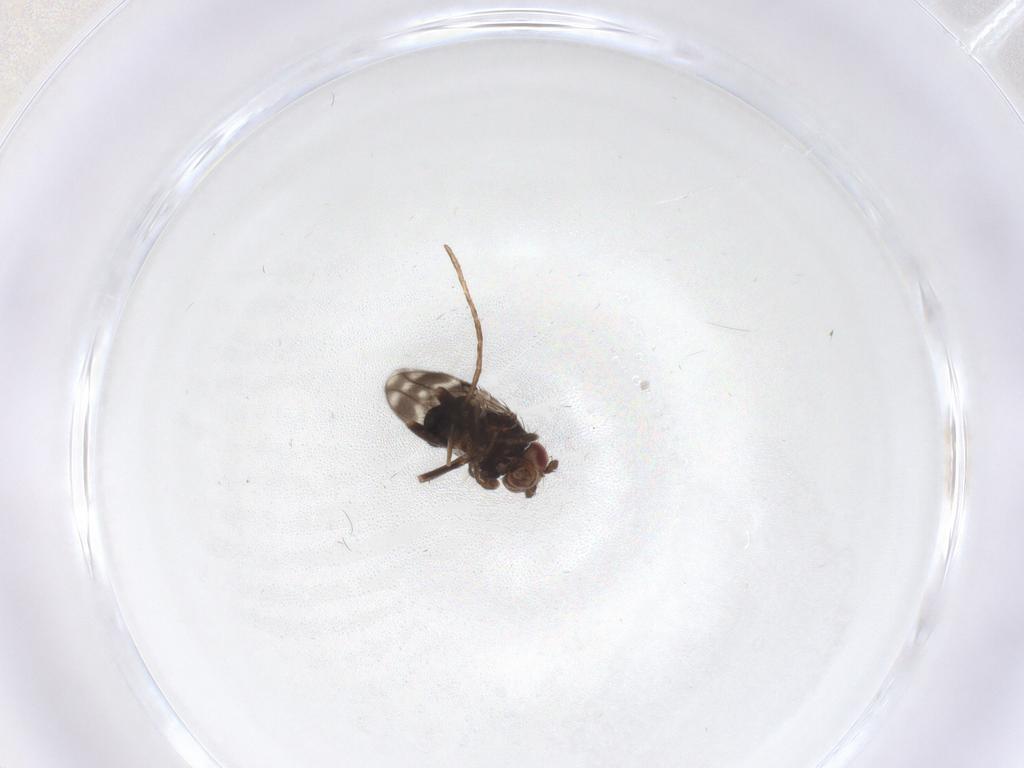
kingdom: Animalia
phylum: Arthropoda
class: Insecta
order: Diptera
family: Sphaeroceridae
